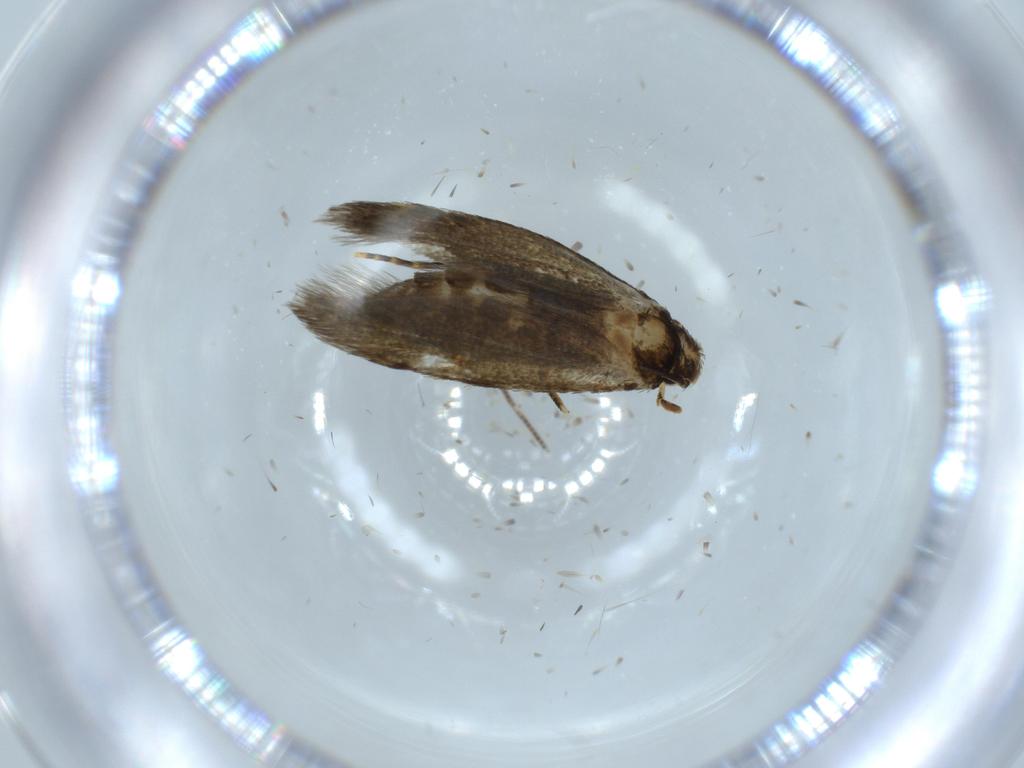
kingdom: Animalia
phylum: Arthropoda
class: Insecta
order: Lepidoptera
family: Tineidae
